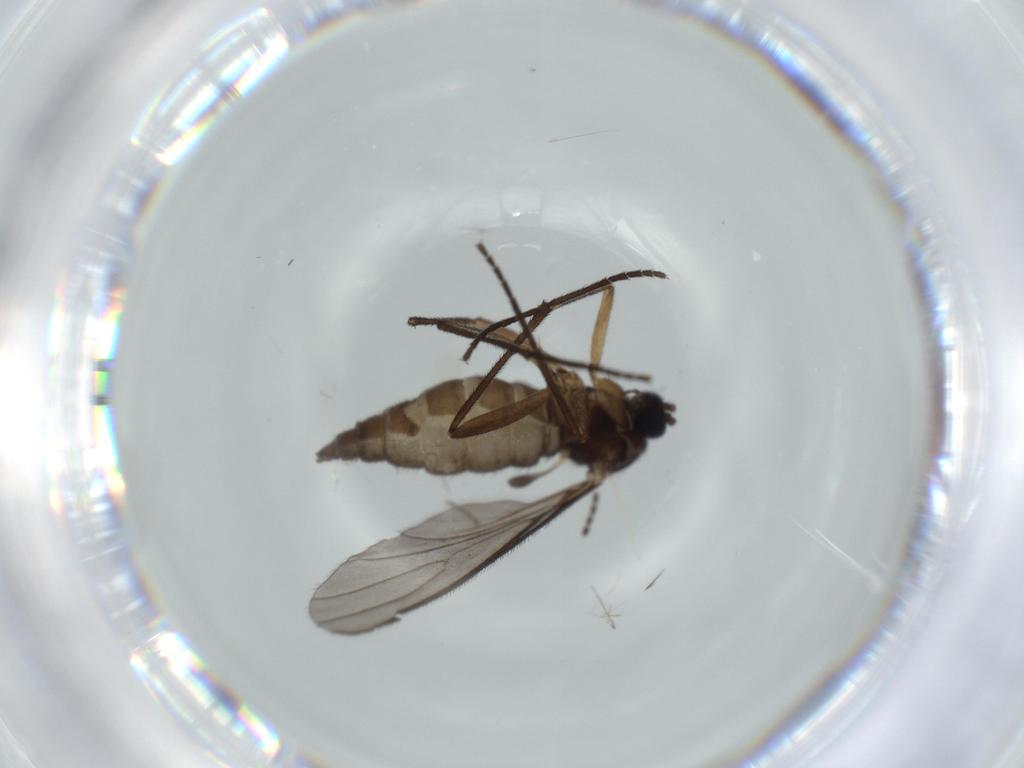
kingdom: Animalia
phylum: Arthropoda
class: Insecta
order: Diptera
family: Sciaridae
